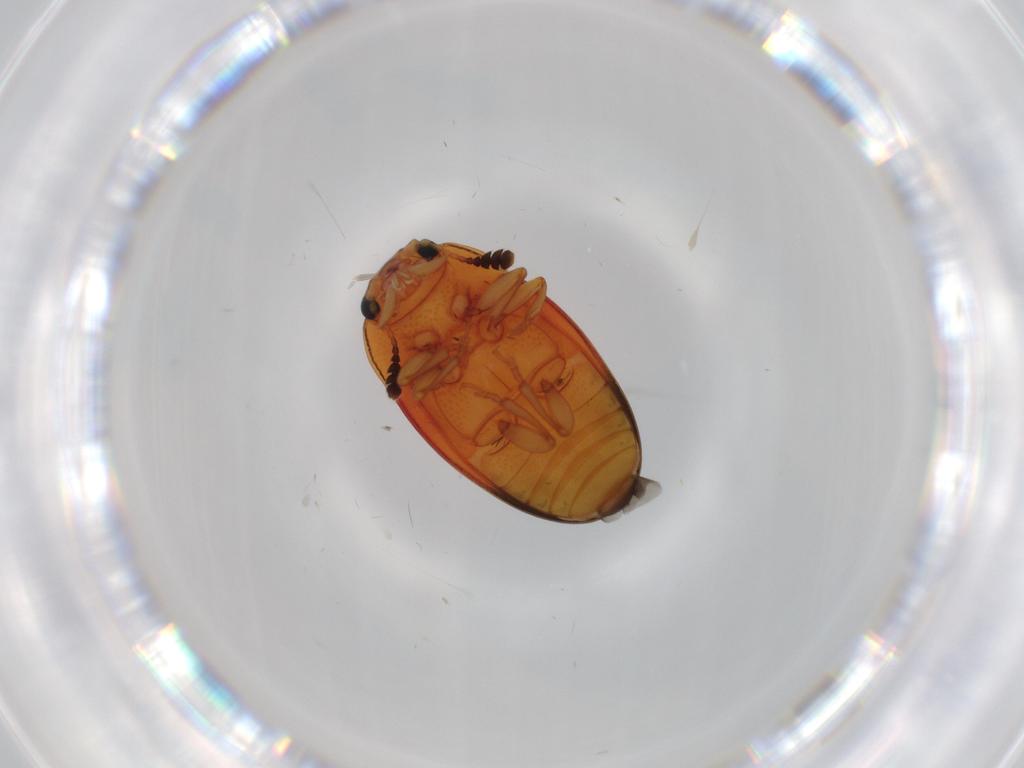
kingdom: Animalia
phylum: Arthropoda
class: Insecta
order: Coleoptera
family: Erotylidae
